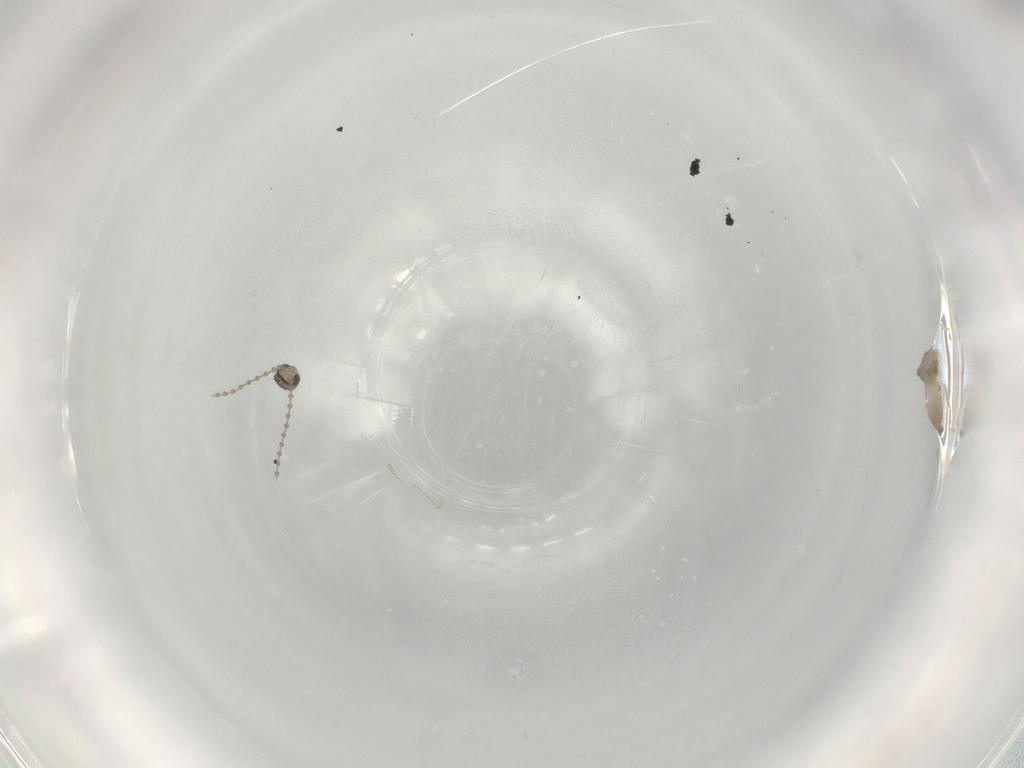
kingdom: Animalia
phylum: Arthropoda
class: Insecta
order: Diptera
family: Cecidomyiidae
